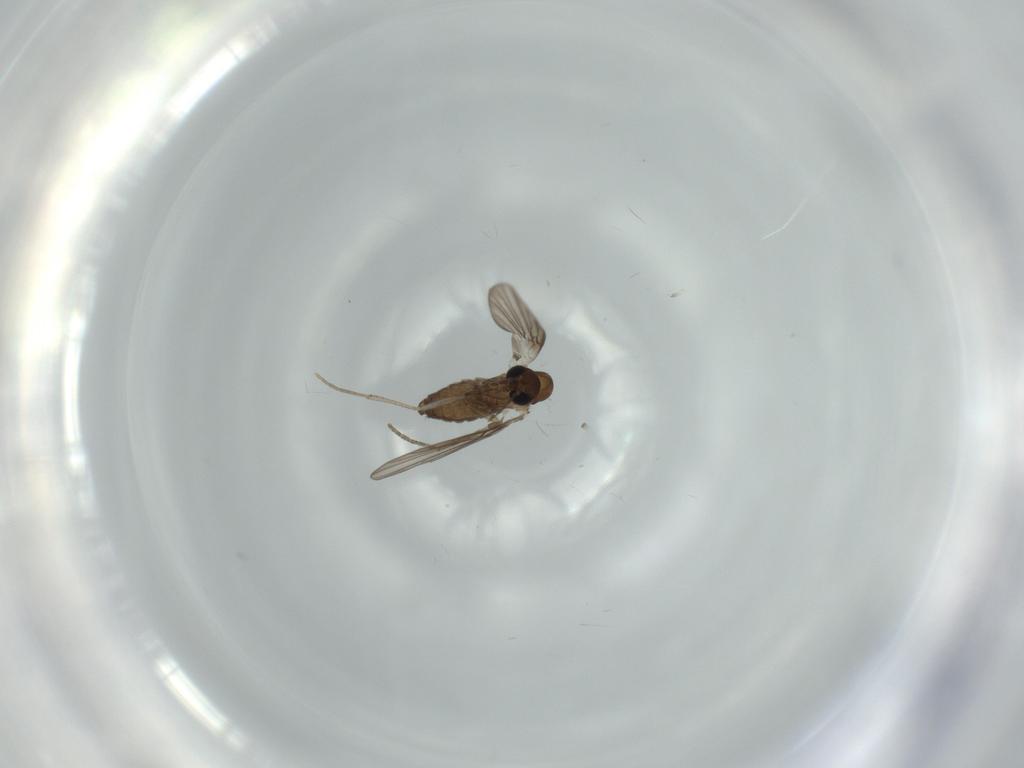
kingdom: Animalia
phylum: Arthropoda
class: Insecta
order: Diptera
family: Psychodidae
